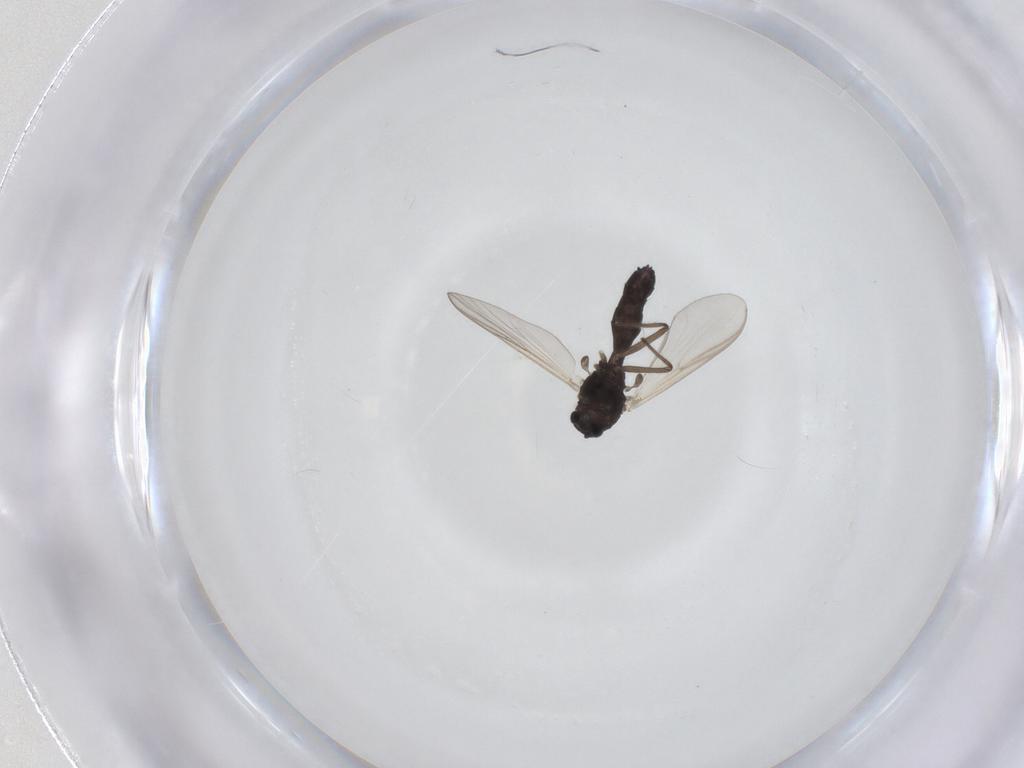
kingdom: Animalia
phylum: Arthropoda
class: Insecta
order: Diptera
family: Chironomidae
